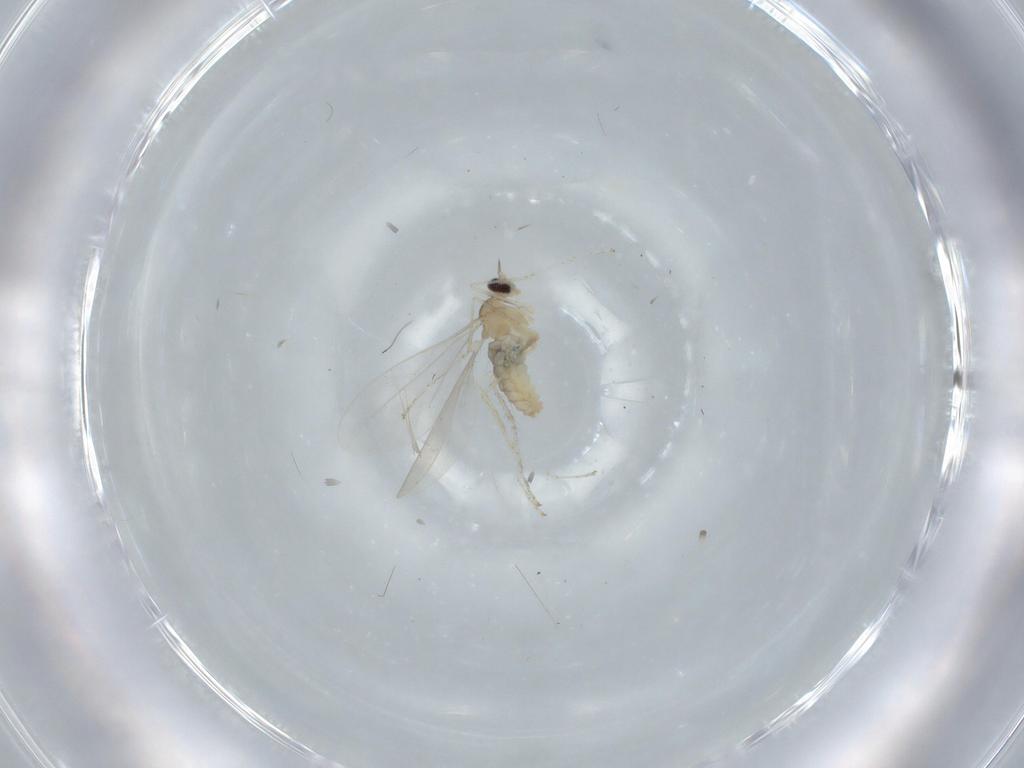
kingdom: Animalia
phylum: Arthropoda
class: Insecta
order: Diptera
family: Cecidomyiidae
